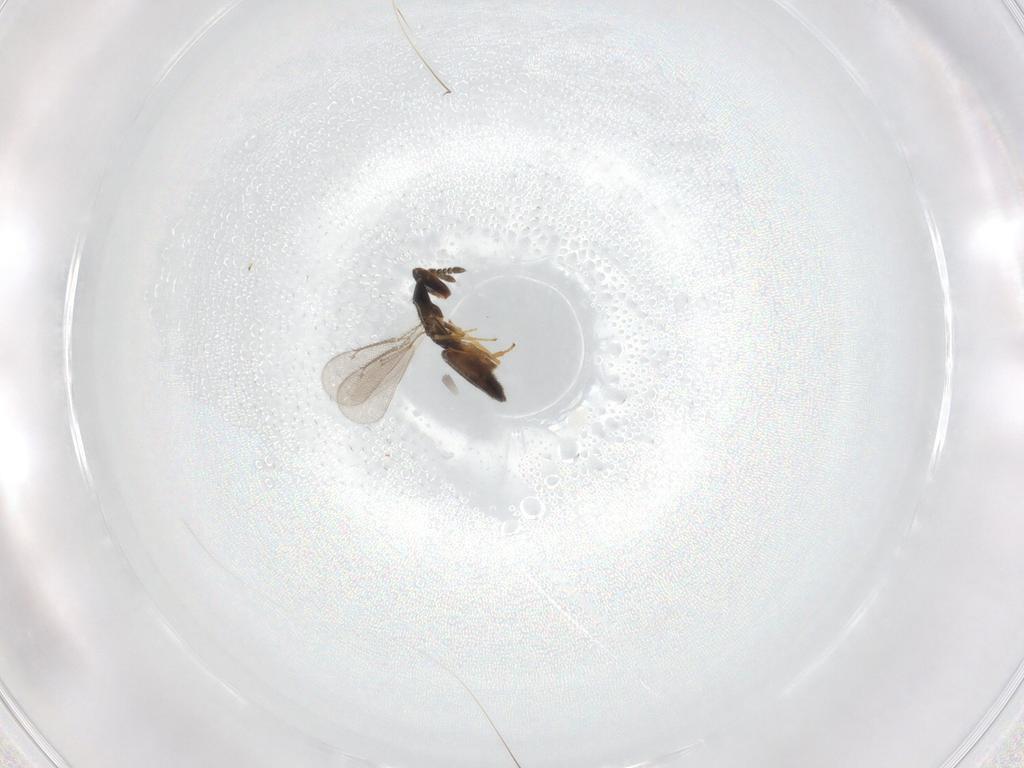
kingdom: Animalia
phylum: Arthropoda
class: Insecta
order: Hymenoptera
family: Eulophidae
